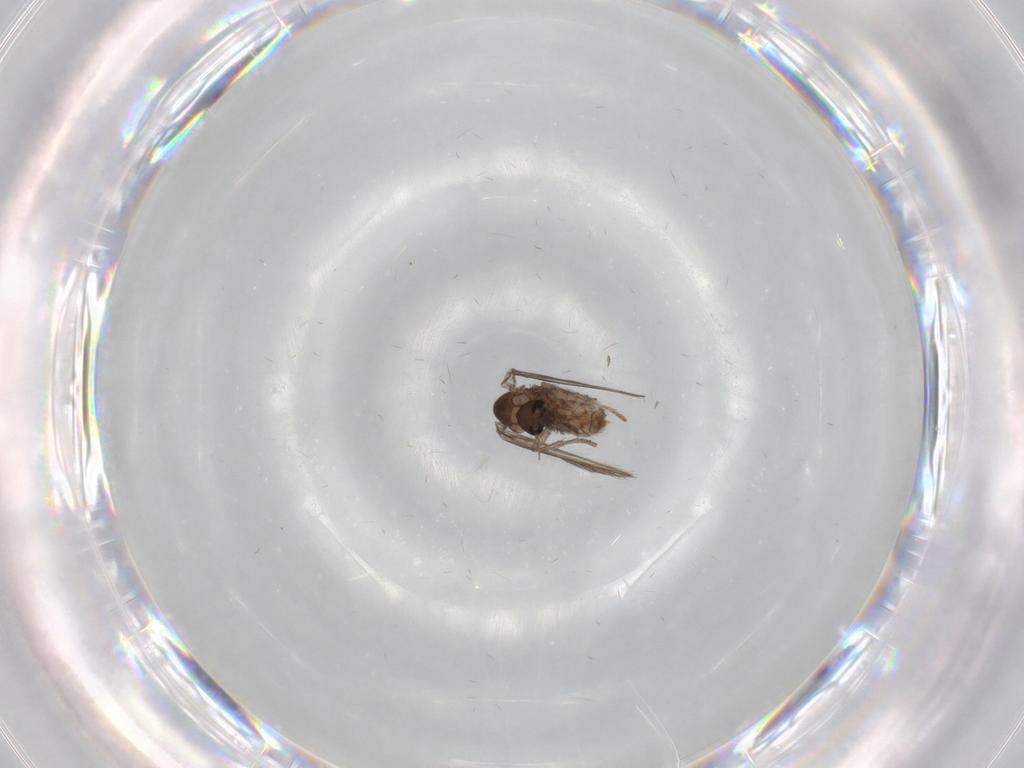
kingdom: Animalia
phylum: Arthropoda
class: Insecta
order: Diptera
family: Psychodidae
